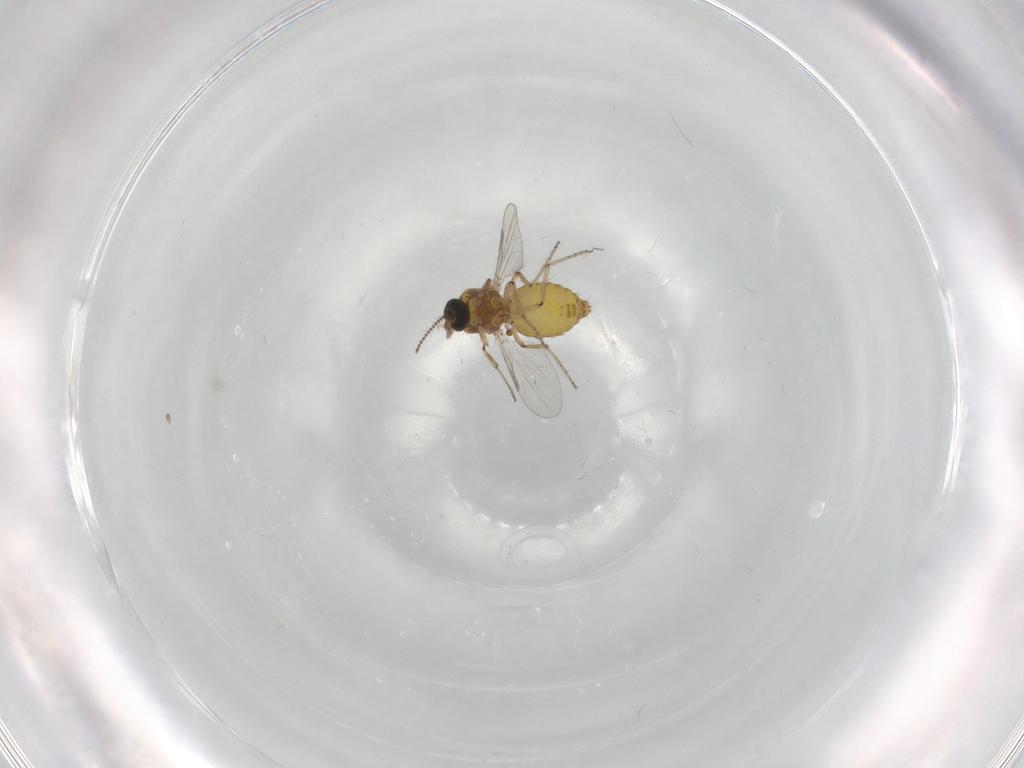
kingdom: Animalia
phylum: Arthropoda
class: Insecta
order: Diptera
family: Ceratopogonidae
